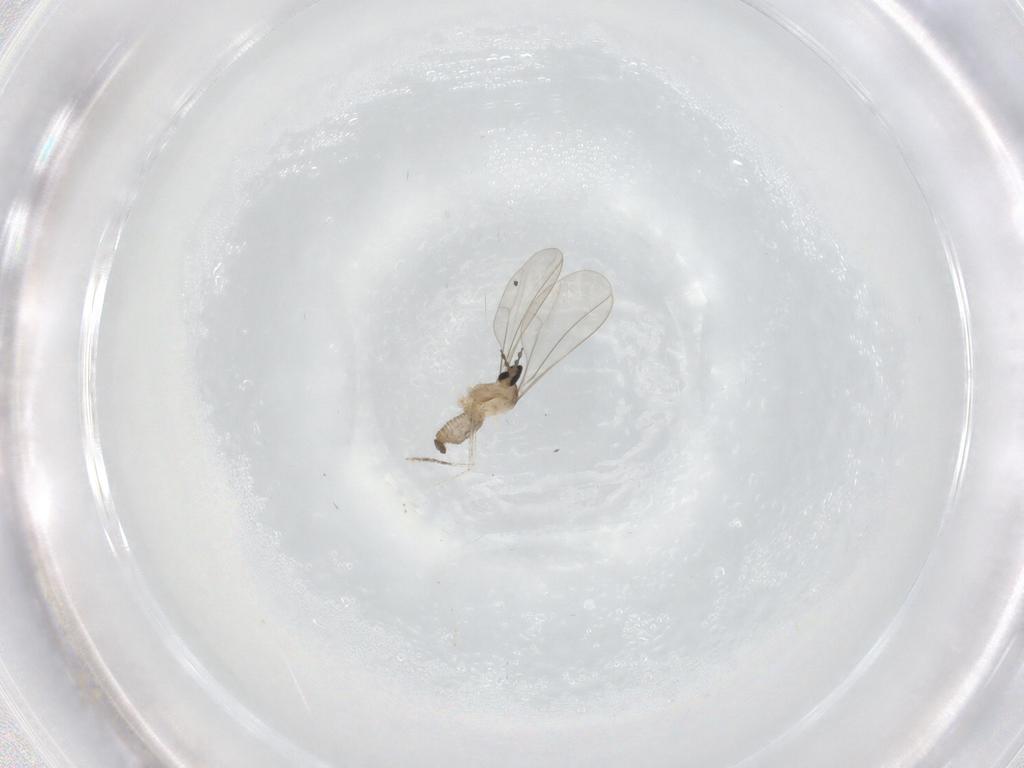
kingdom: Animalia
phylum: Arthropoda
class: Insecta
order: Diptera
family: Cecidomyiidae
